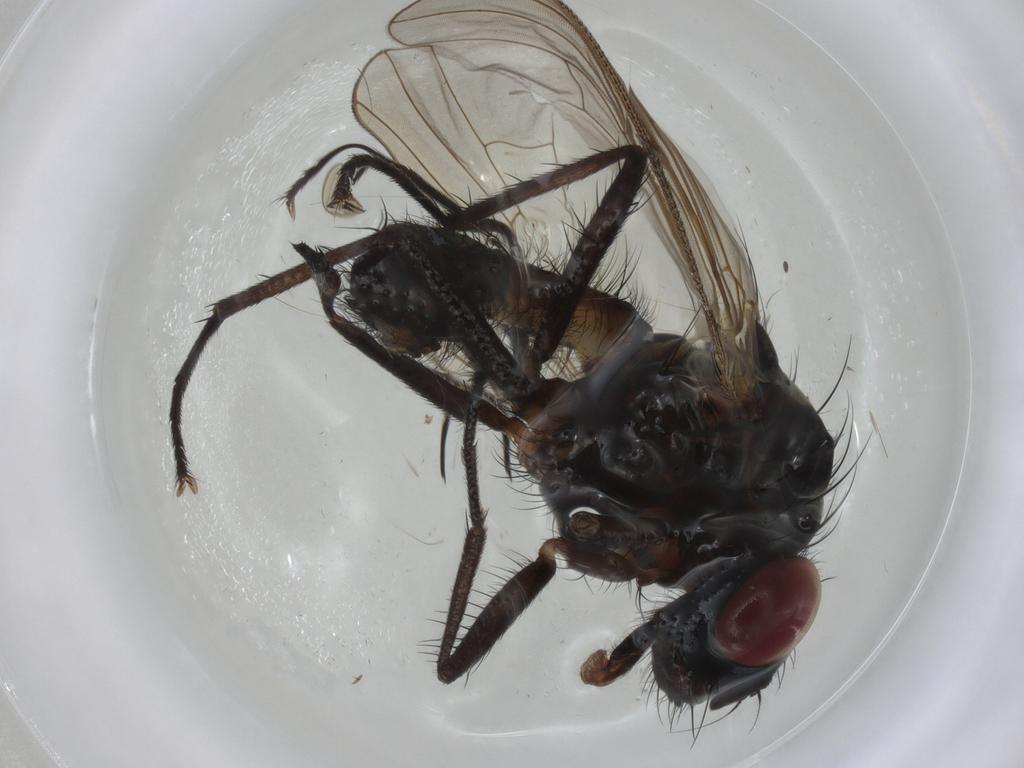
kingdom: Animalia
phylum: Arthropoda
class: Insecta
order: Diptera
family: Anthomyiidae
